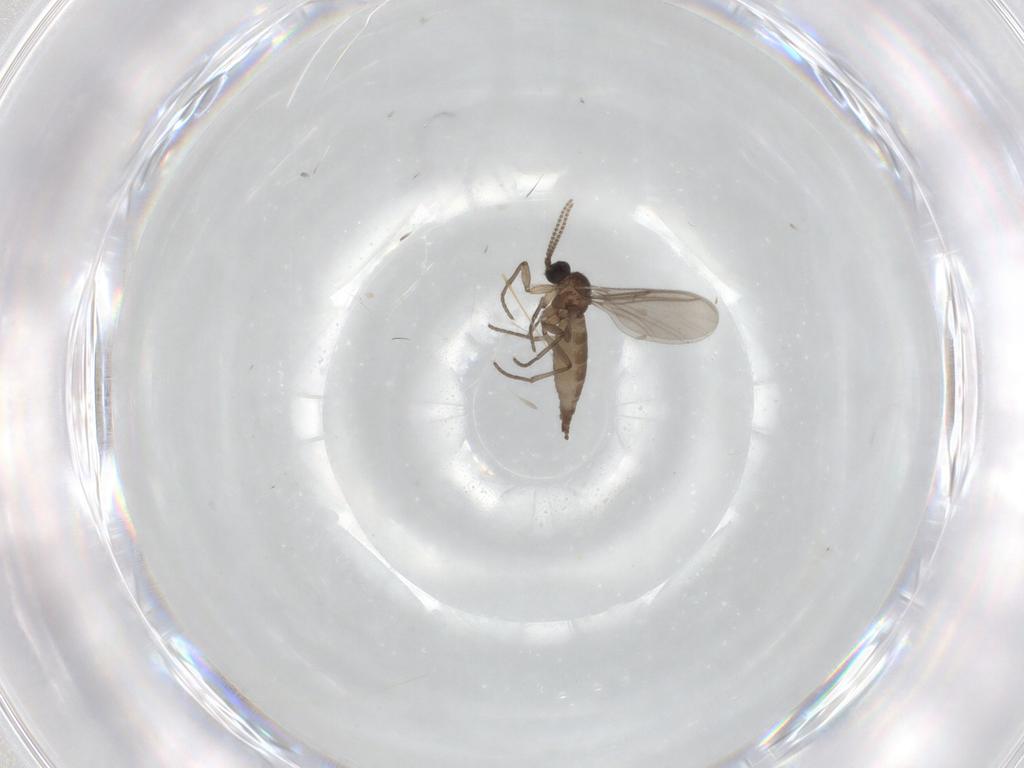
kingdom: Animalia
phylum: Arthropoda
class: Insecta
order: Diptera
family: Sciaridae
